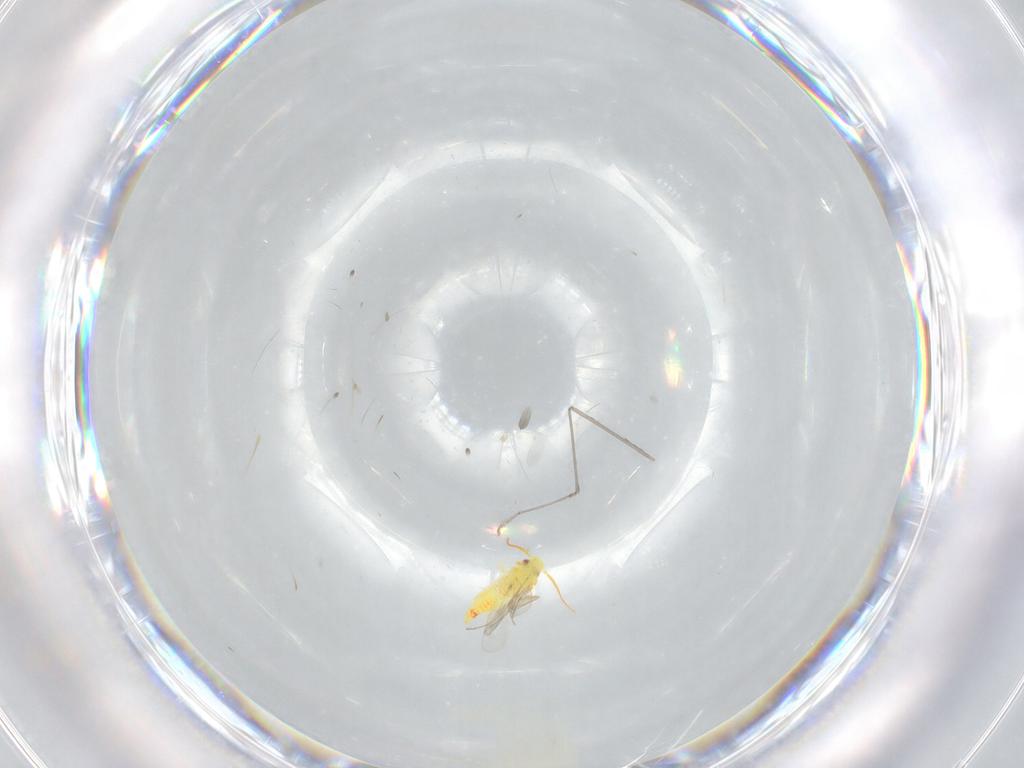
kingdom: Animalia
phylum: Arthropoda
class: Insecta
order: Hemiptera
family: Aleyrodidae
